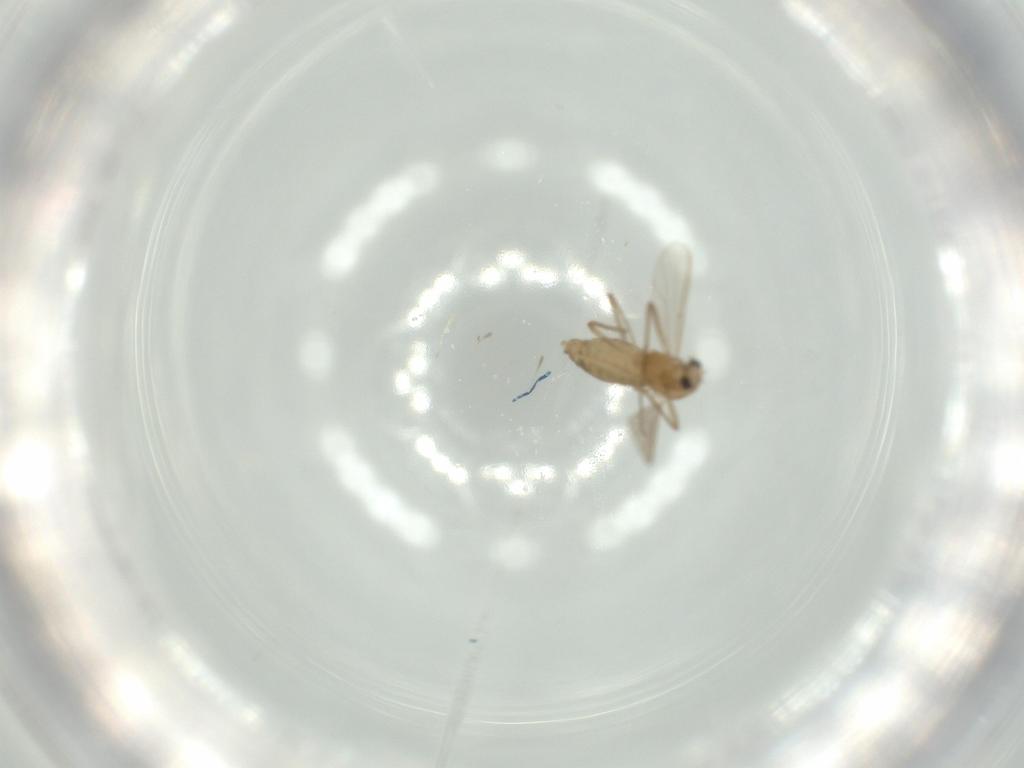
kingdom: Animalia
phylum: Arthropoda
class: Insecta
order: Diptera
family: Chironomidae
